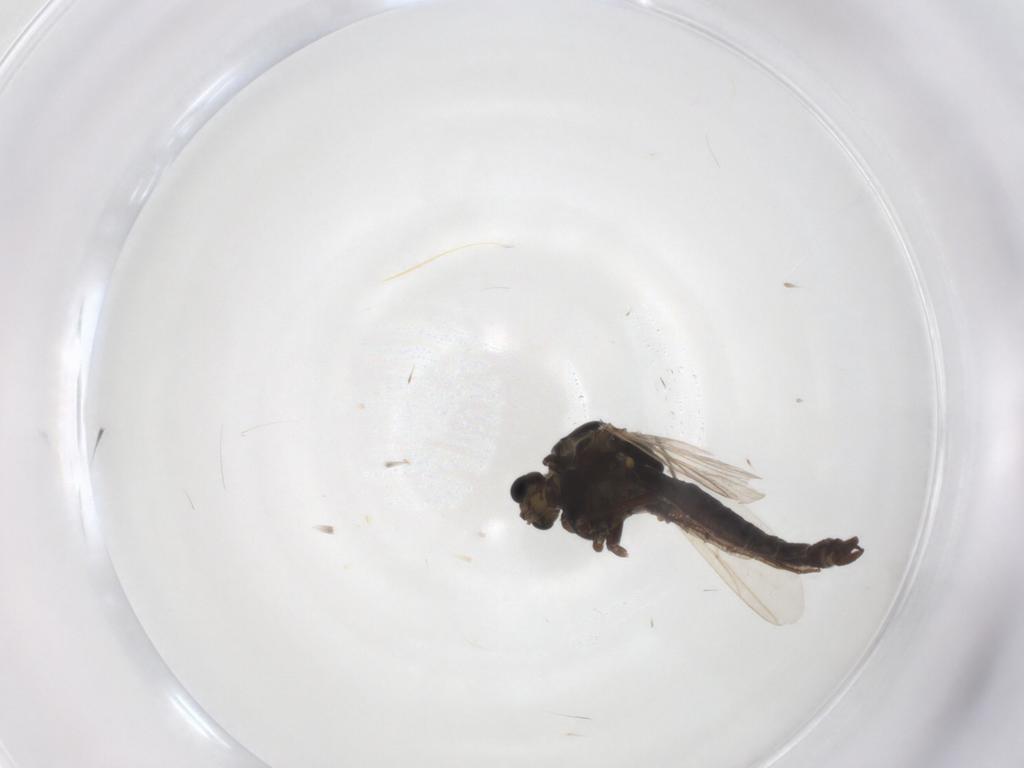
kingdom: Animalia
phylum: Arthropoda
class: Insecta
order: Diptera
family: Chironomidae
